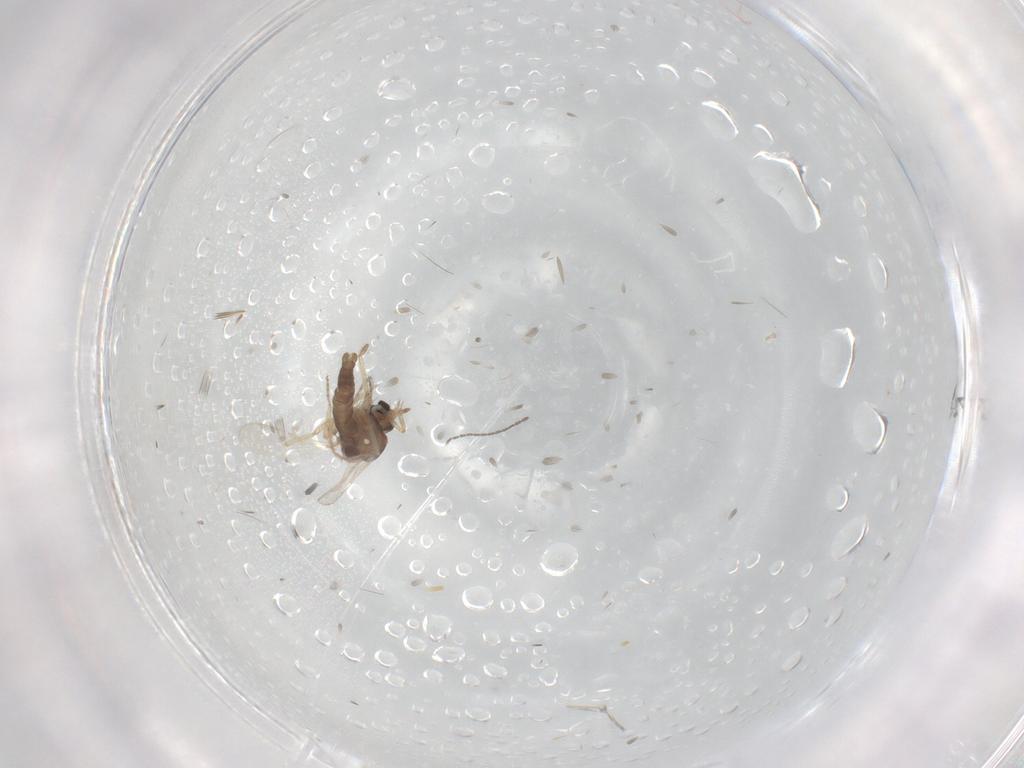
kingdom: Animalia
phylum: Arthropoda
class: Insecta
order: Diptera
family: Cecidomyiidae
